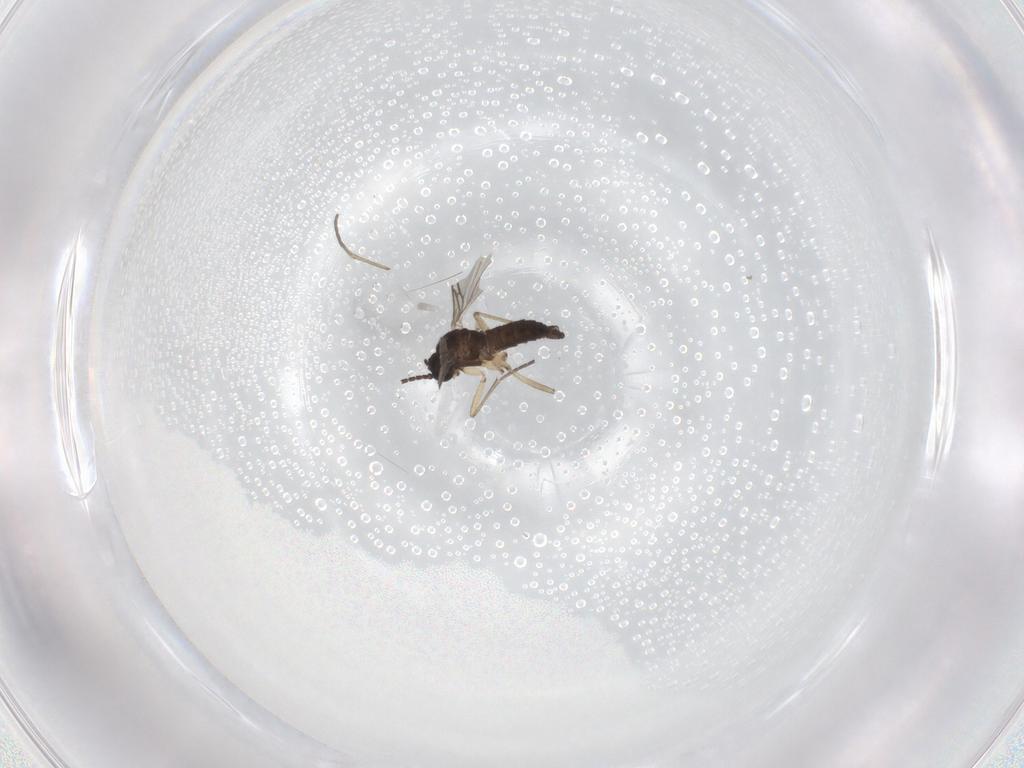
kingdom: Animalia
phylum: Arthropoda
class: Insecta
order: Diptera
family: Sciaridae
